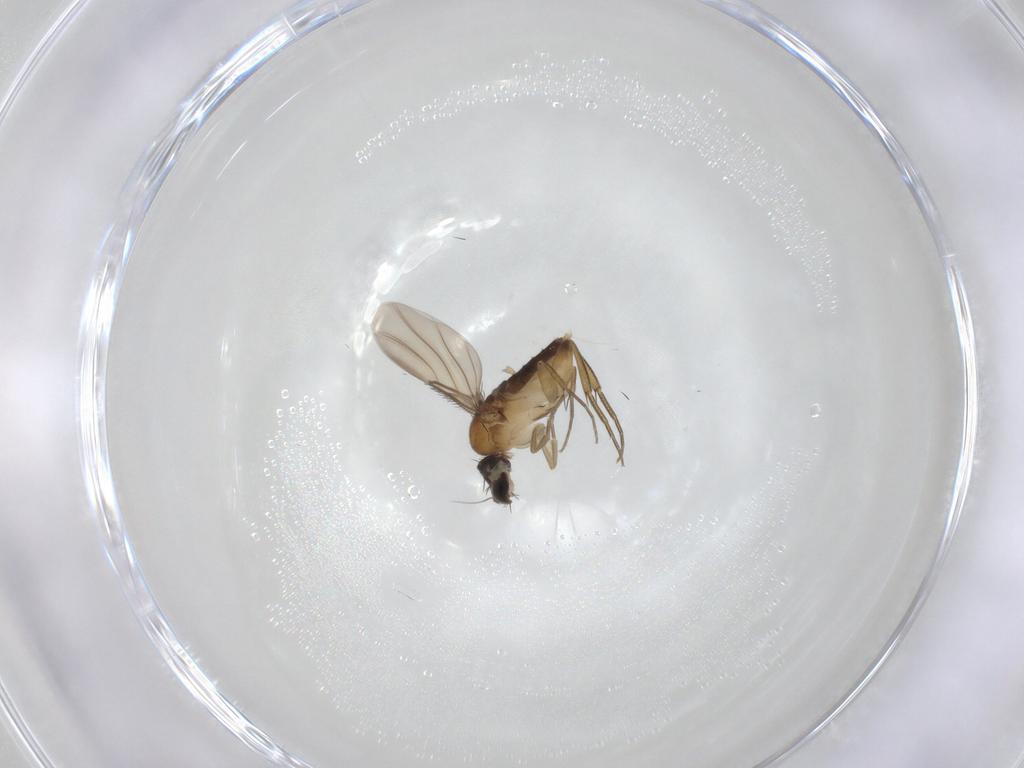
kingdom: Animalia
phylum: Arthropoda
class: Insecta
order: Diptera
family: Phoridae
